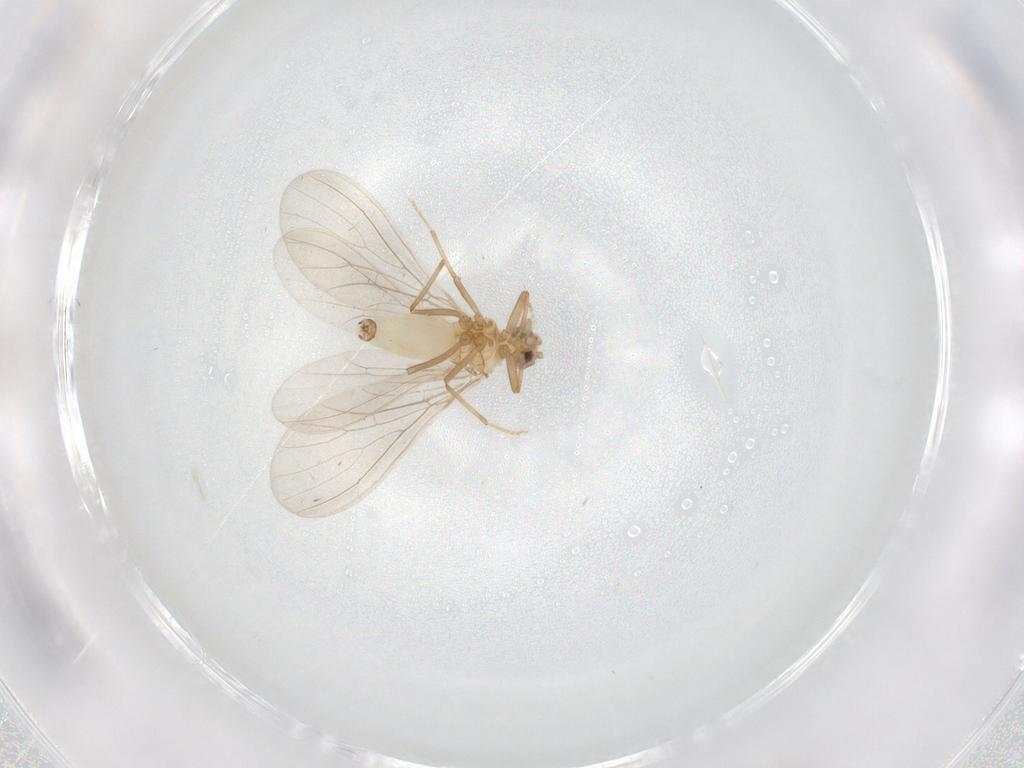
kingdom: Animalia
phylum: Arthropoda
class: Insecta
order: Neuroptera
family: Coniopterygidae
